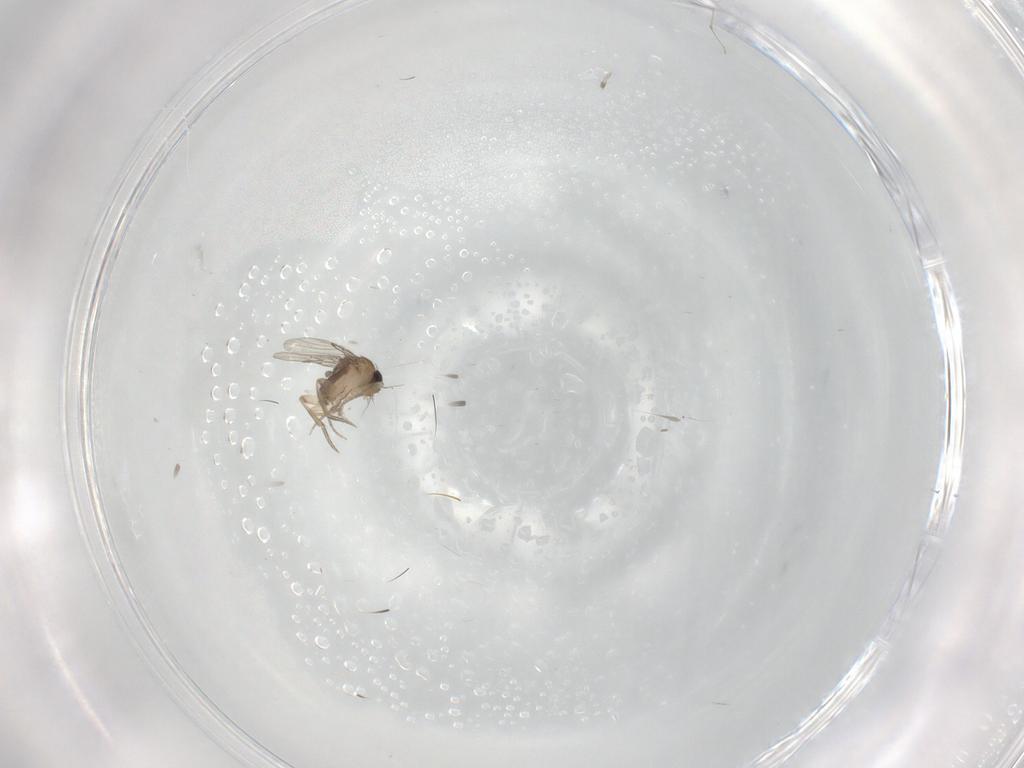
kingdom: Animalia
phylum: Arthropoda
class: Insecta
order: Diptera
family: Phoridae
